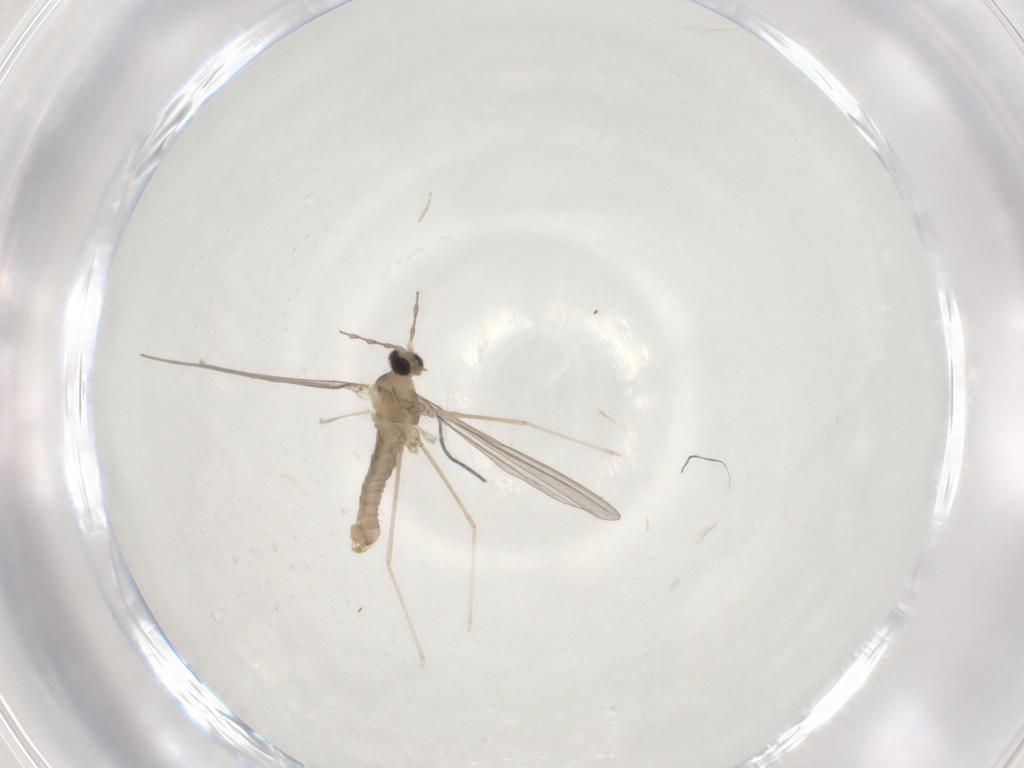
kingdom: Animalia
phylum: Arthropoda
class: Insecta
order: Diptera
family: Cecidomyiidae
